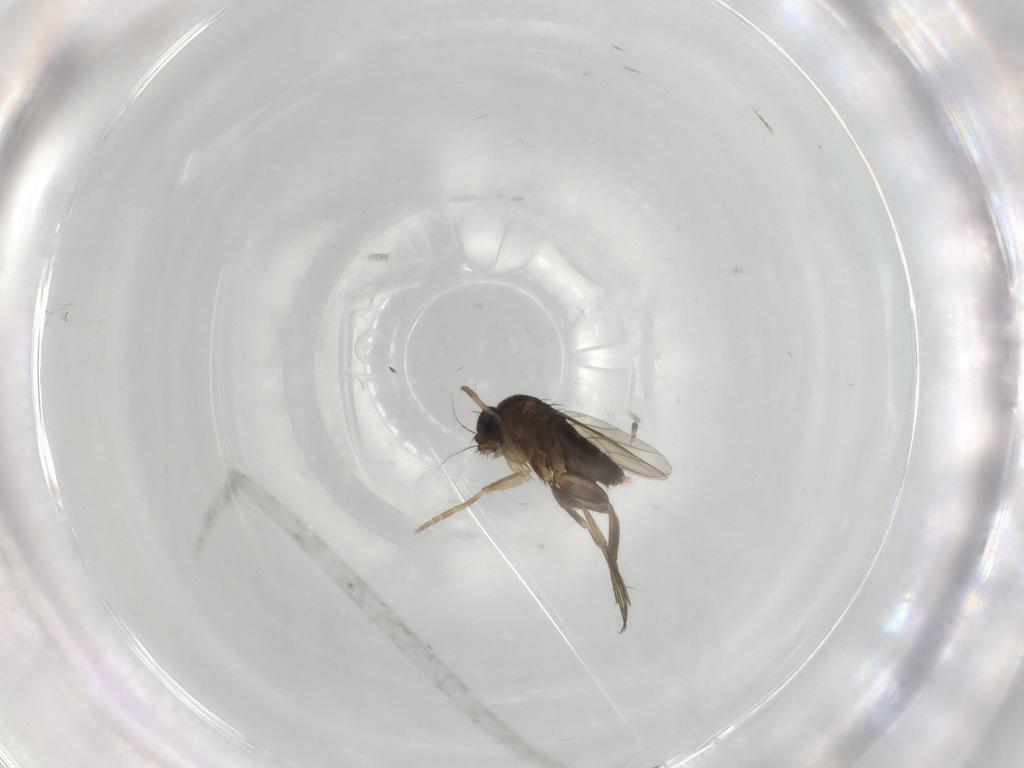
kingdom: Animalia
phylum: Arthropoda
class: Insecta
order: Diptera
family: Phoridae
